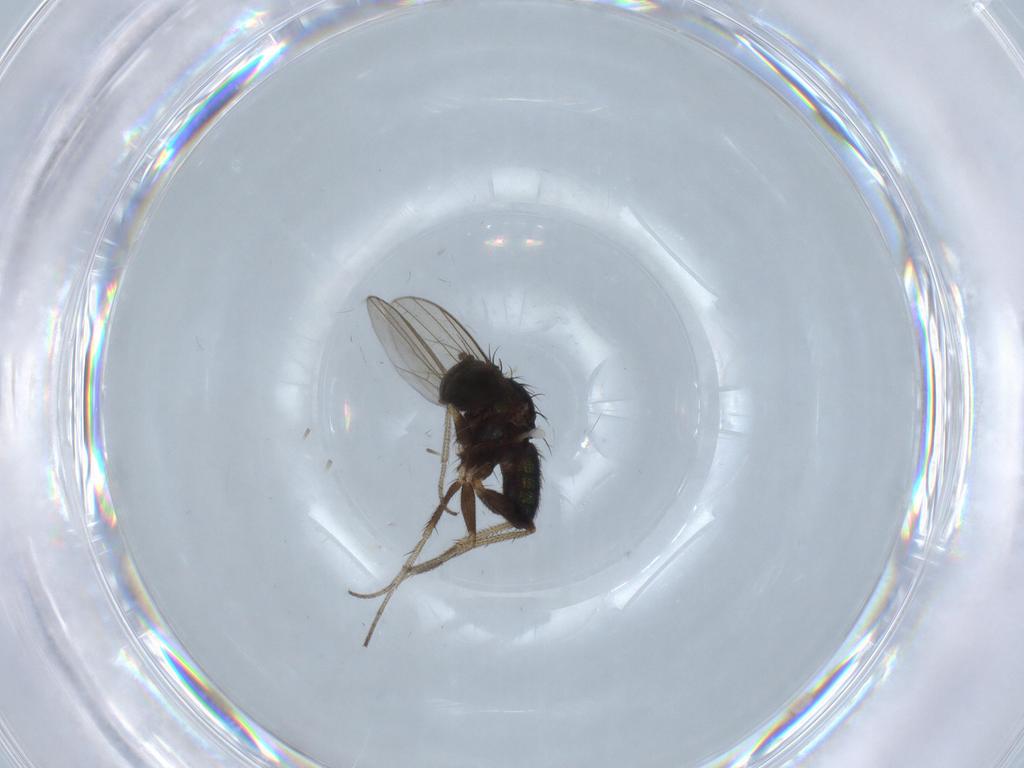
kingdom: Animalia
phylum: Arthropoda
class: Insecta
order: Diptera
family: Dolichopodidae
